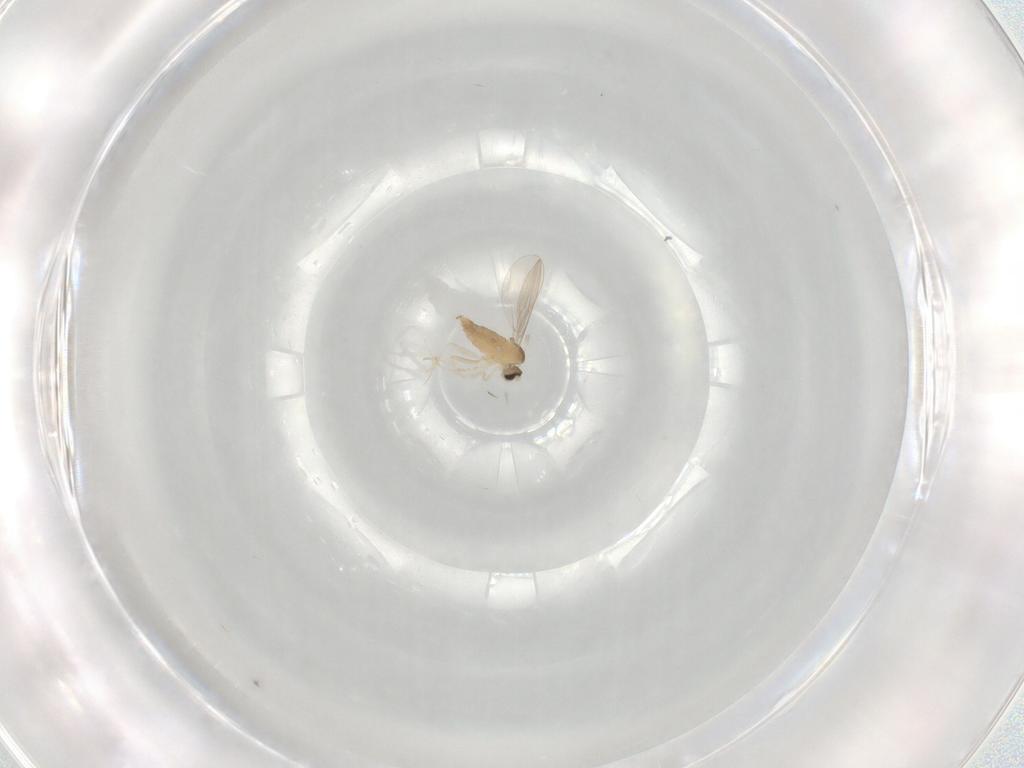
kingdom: Animalia
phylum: Arthropoda
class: Insecta
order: Diptera
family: Cecidomyiidae
